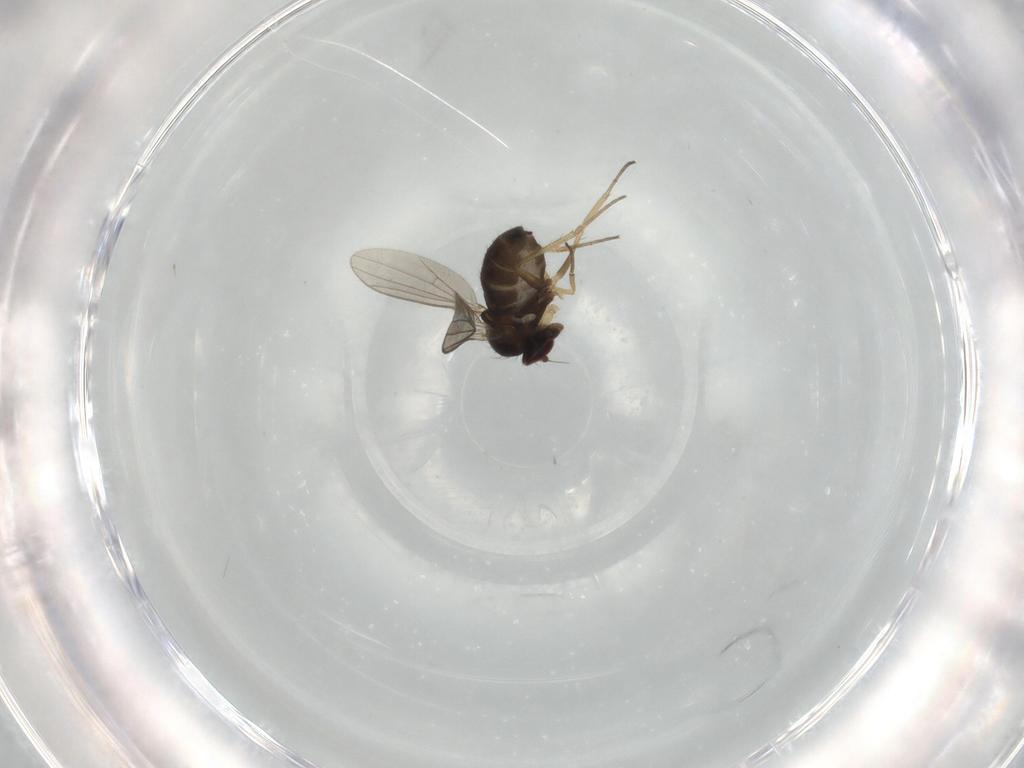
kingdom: Animalia
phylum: Arthropoda
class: Insecta
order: Diptera
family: Dolichopodidae
